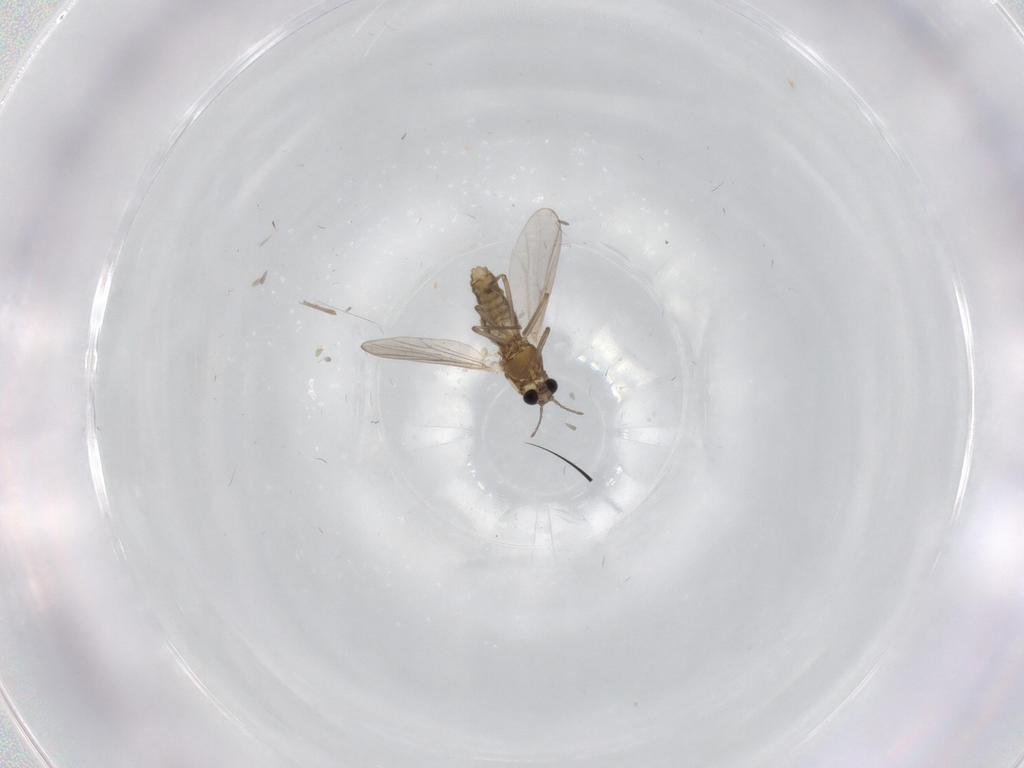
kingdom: Animalia
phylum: Arthropoda
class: Insecta
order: Diptera
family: Chironomidae
